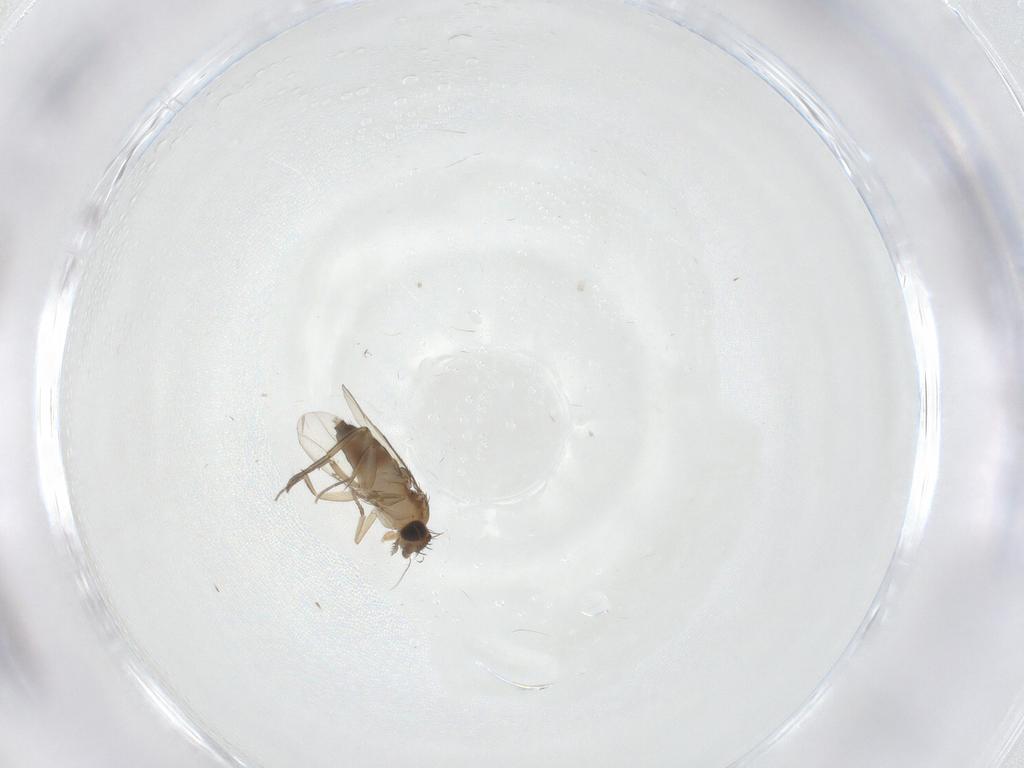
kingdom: Animalia
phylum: Arthropoda
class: Insecta
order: Diptera
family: Phoridae
